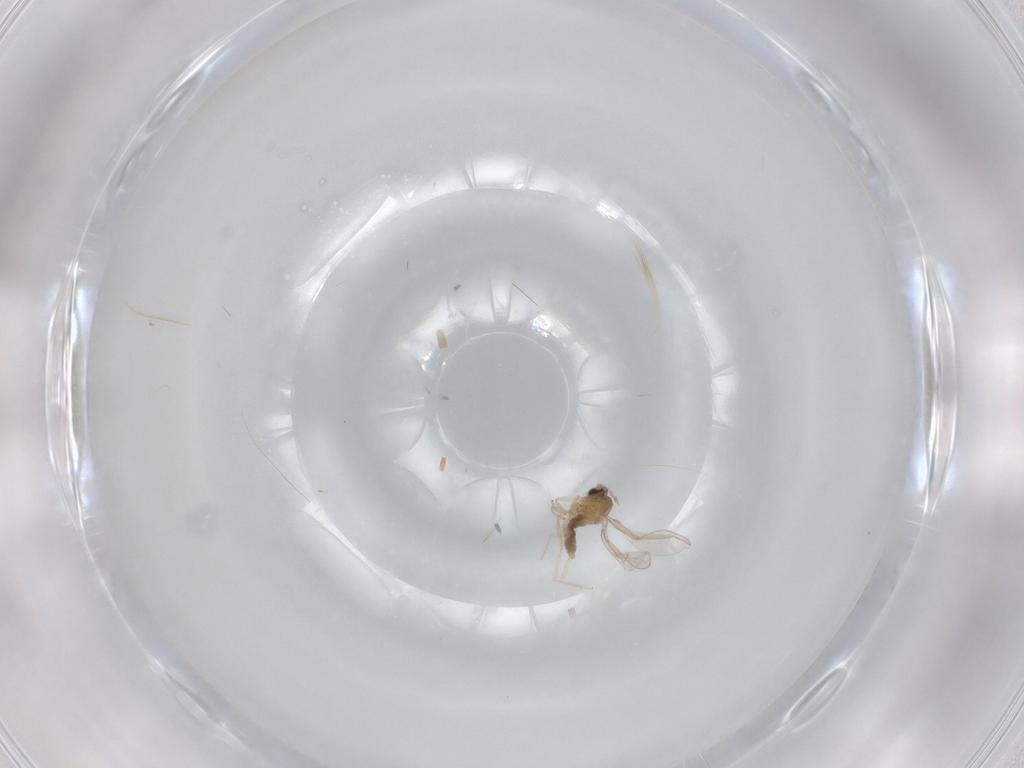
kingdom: Animalia
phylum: Arthropoda
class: Insecta
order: Diptera
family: Cecidomyiidae
